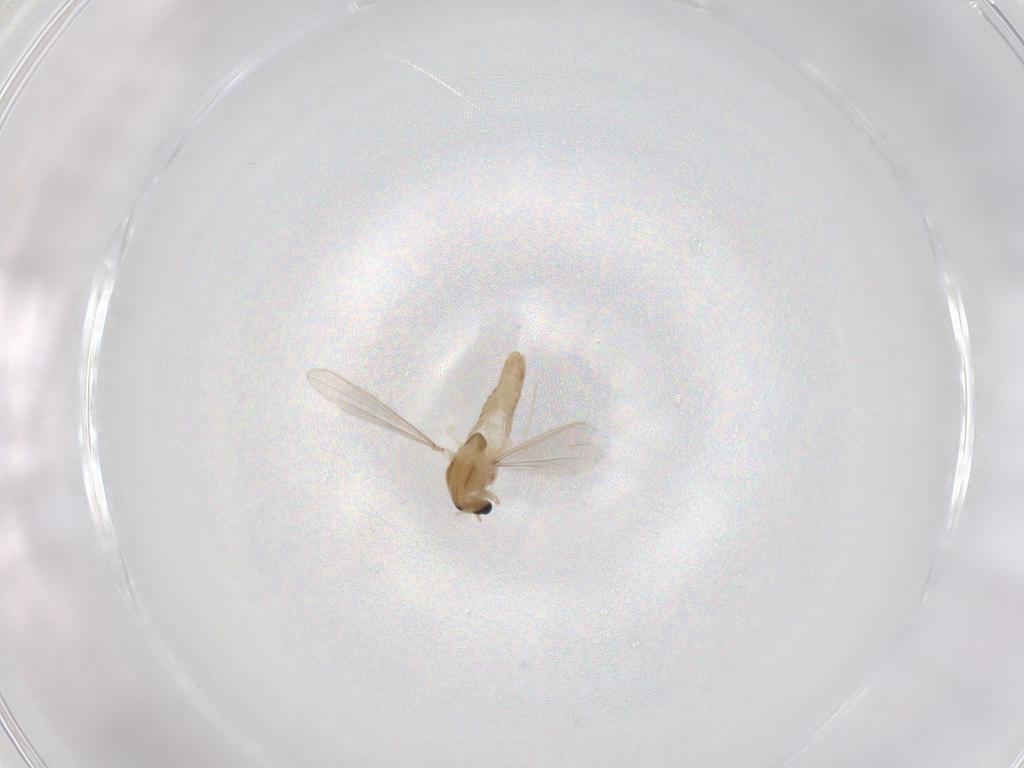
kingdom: Animalia
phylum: Arthropoda
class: Insecta
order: Diptera
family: Chironomidae
